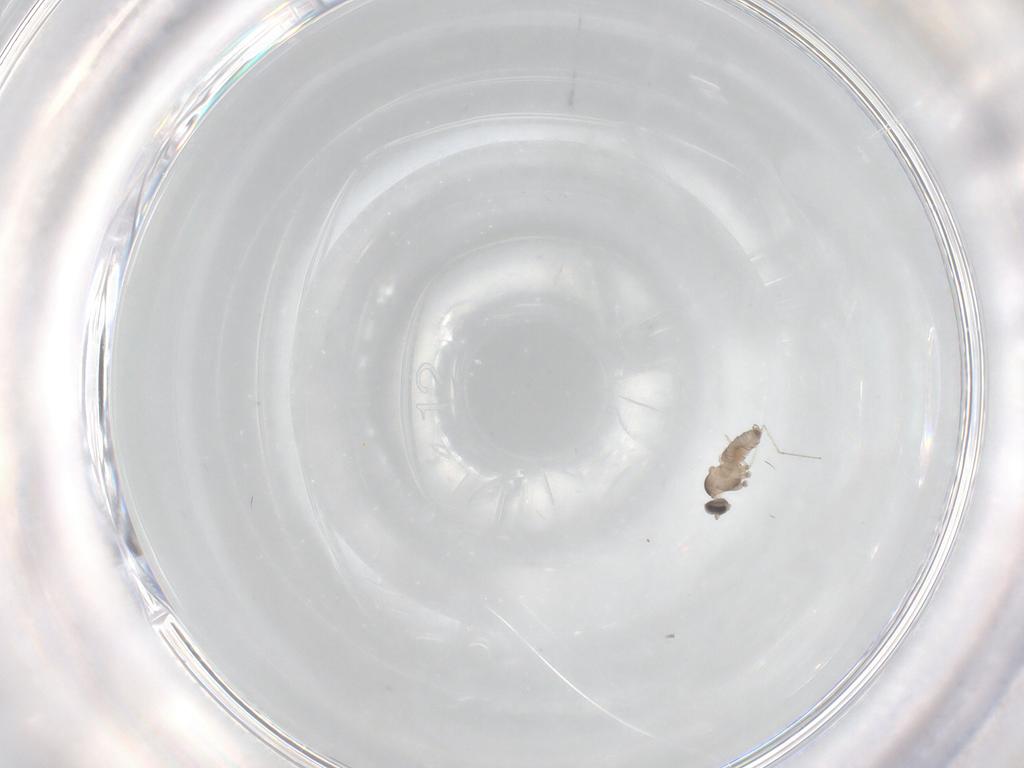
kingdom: Animalia
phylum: Arthropoda
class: Insecta
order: Diptera
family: Cecidomyiidae
